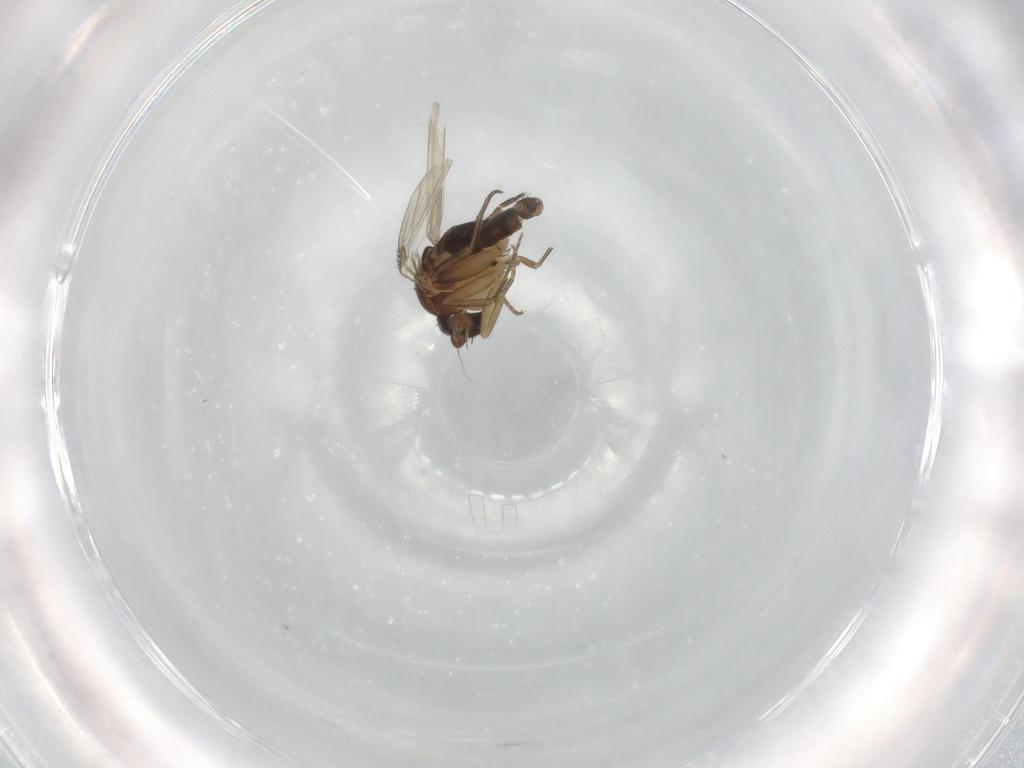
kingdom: Animalia
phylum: Arthropoda
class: Insecta
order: Diptera
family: Phoridae
